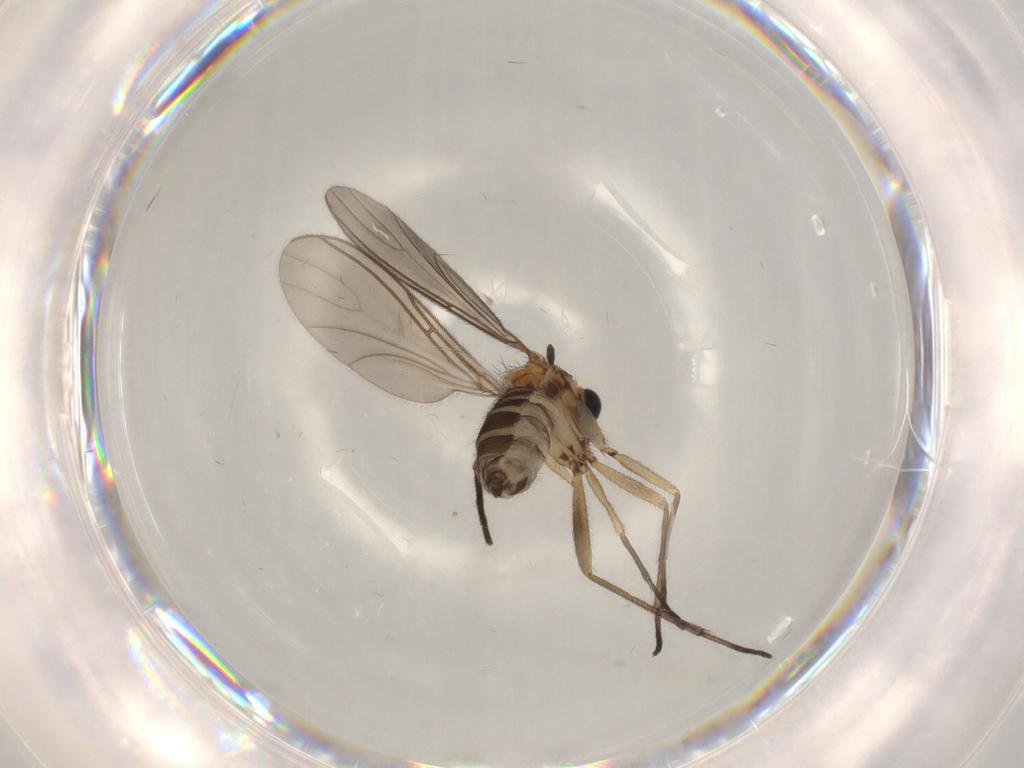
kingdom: Animalia
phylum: Arthropoda
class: Insecta
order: Diptera
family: Sciaridae
